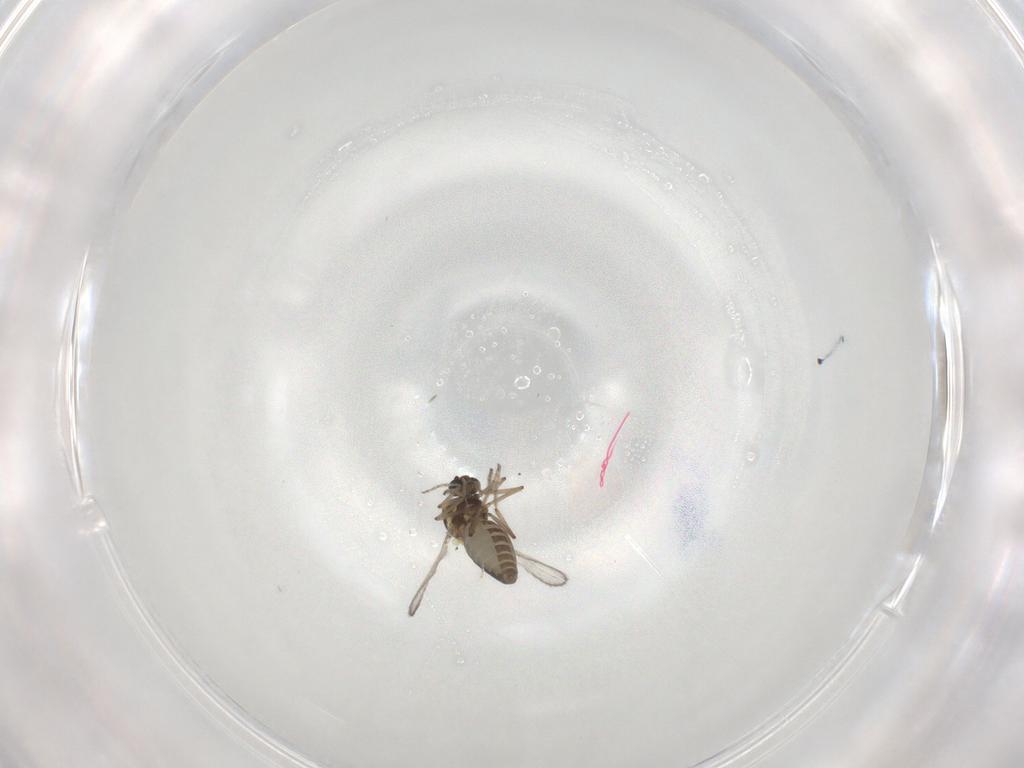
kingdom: Animalia
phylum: Arthropoda
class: Insecta
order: Diptera
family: Ceratopogonidae
